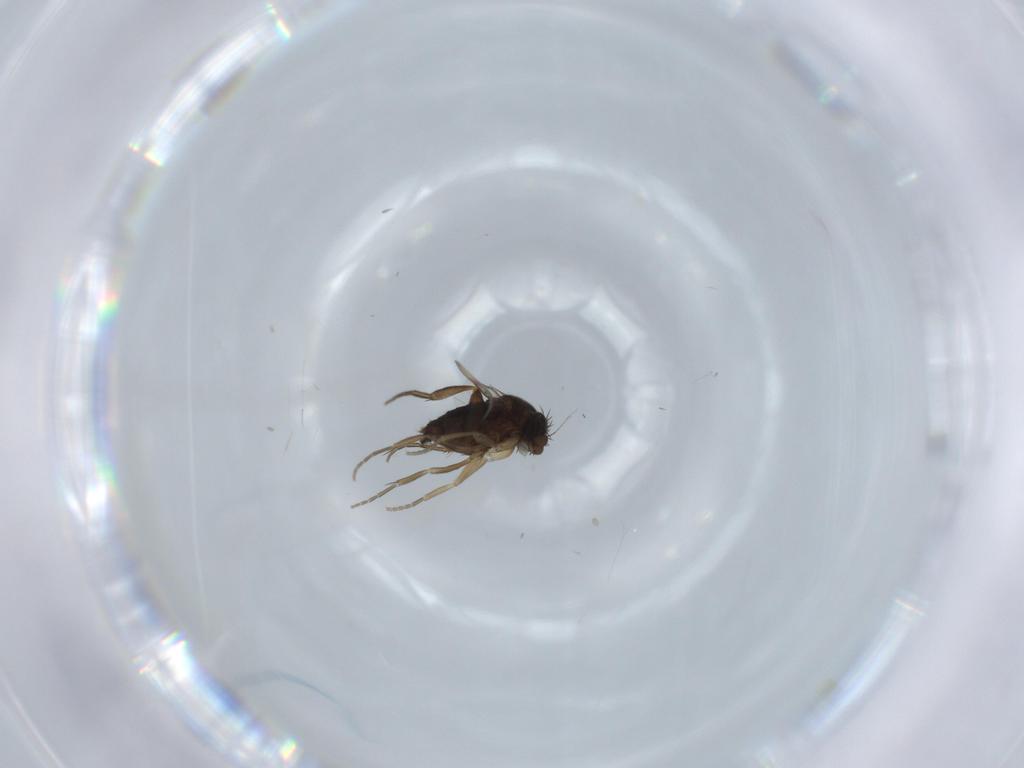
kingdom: Animalia
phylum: Arthropoda
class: Insecta
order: Diptera
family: Phoridae
